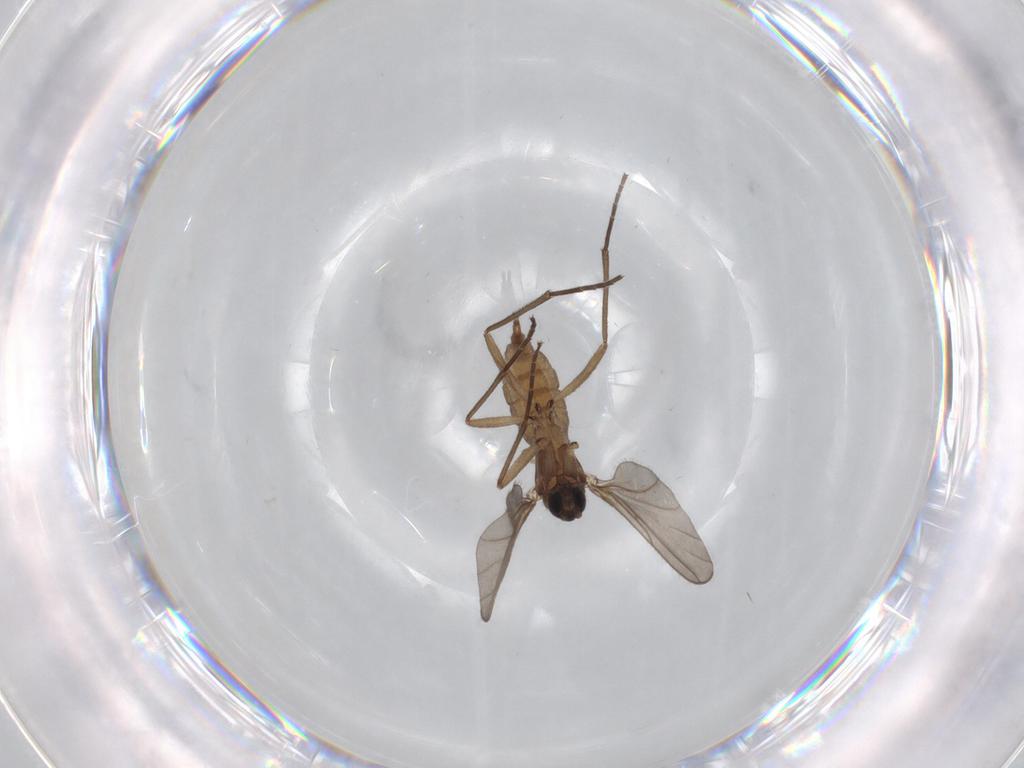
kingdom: Animalia
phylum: Arthropoda
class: Insecta
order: Diptera
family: Sciaridae
